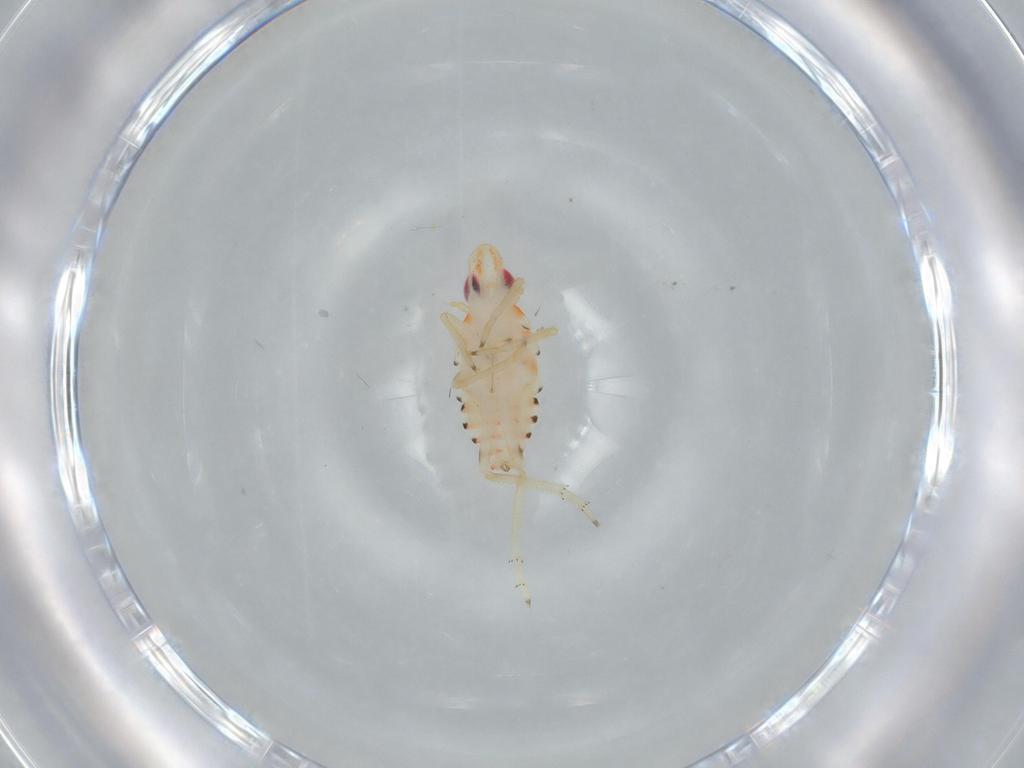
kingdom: Animalia
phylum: Arthropoda
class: Insecta
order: Hemiptera
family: Tropiduchidae
